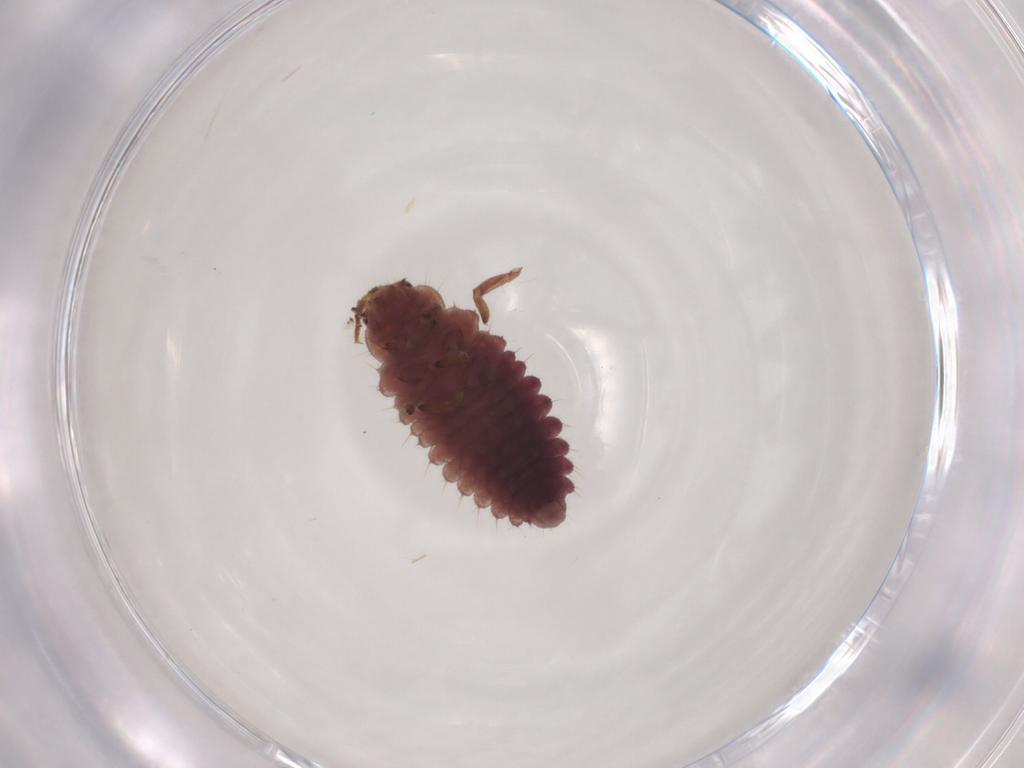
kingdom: Animalia
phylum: Arthropoda
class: Insecta
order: Coleoptera
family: Coccinellidae
